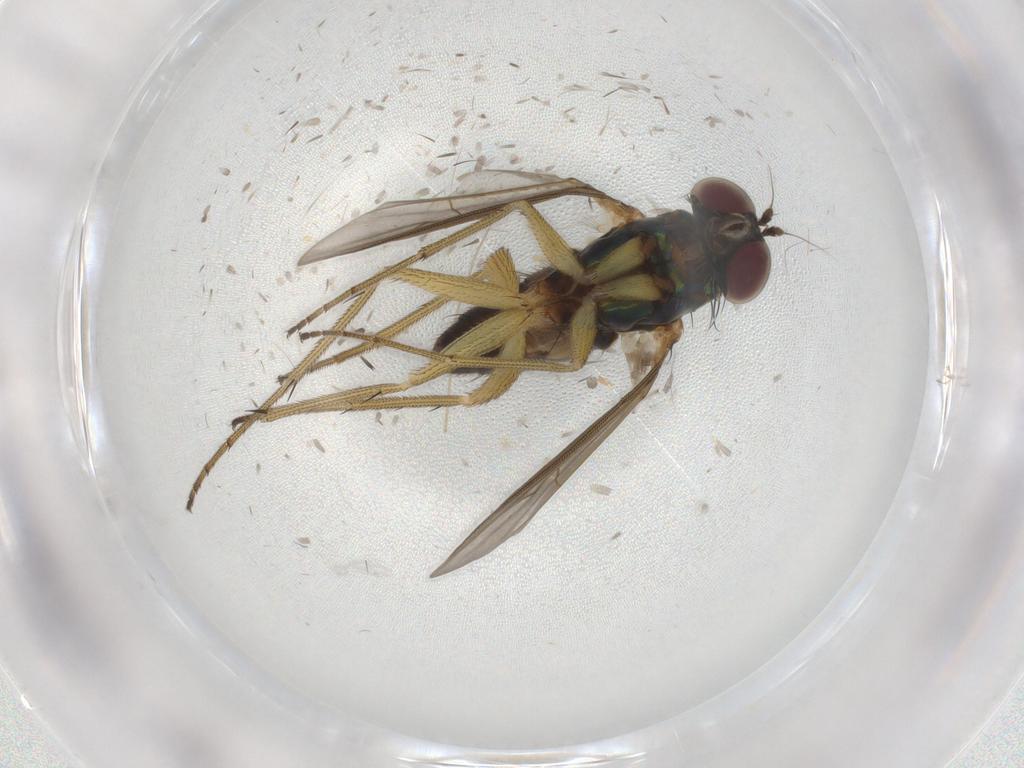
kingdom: Animalia
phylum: Arthropoda
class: Insecta
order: Diptera
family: Chironomidae
